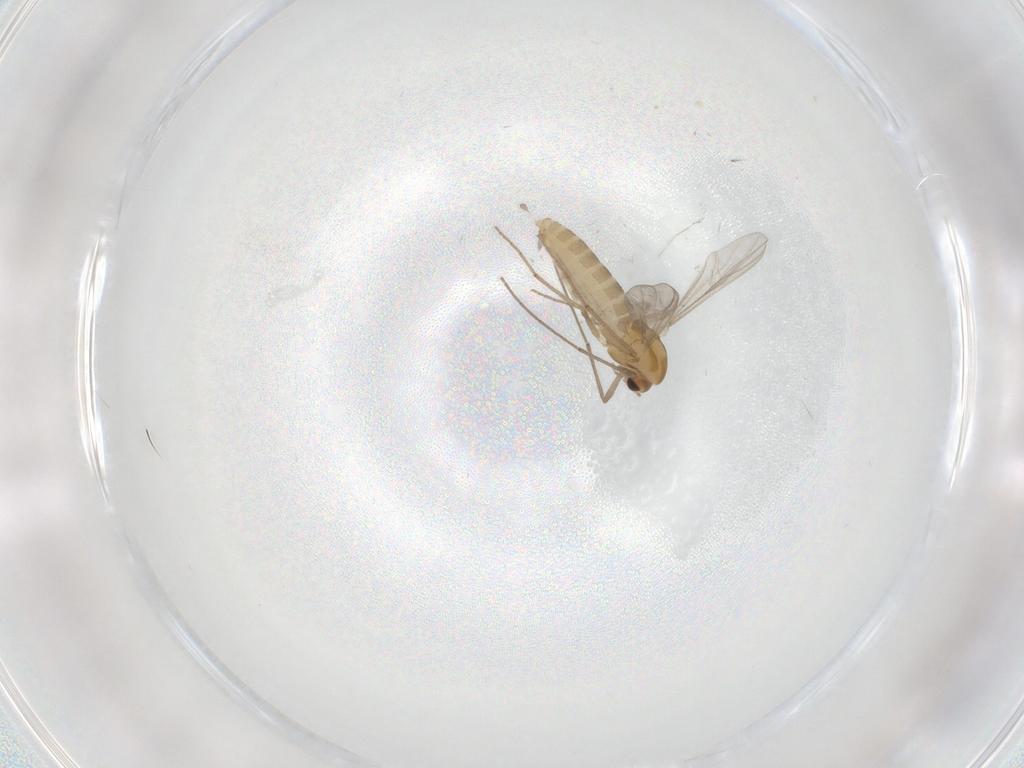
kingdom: Animalia
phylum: Arthropoda
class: Insecta
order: Diptera
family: Chironomidae
